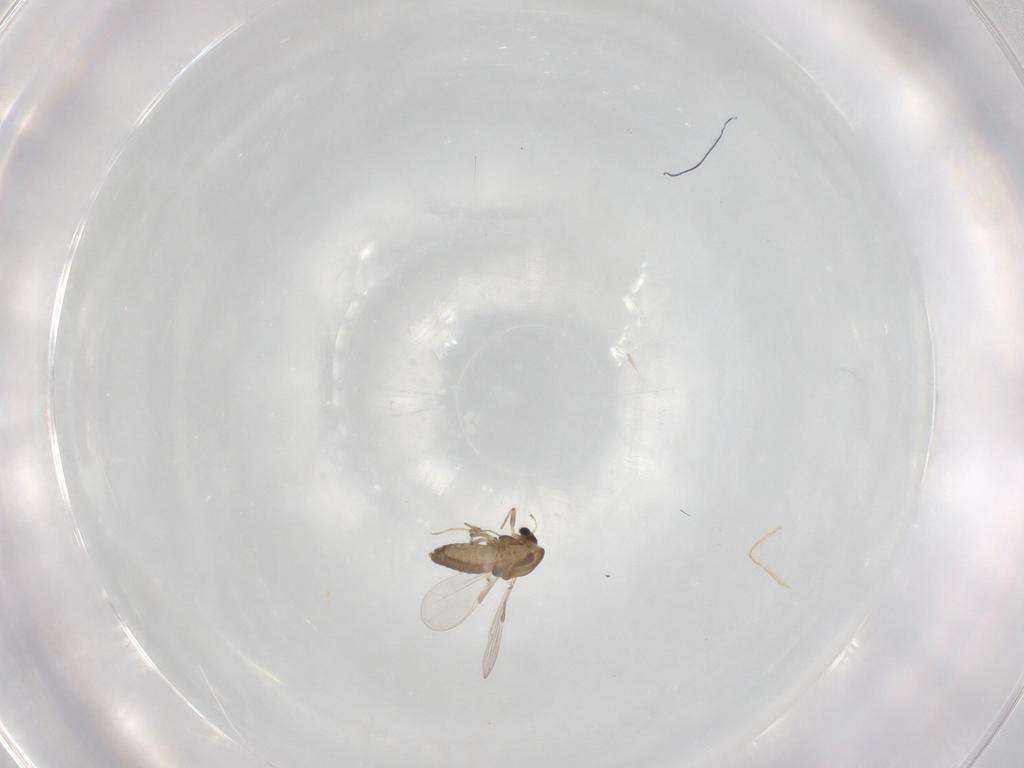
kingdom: Animalia
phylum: Arthropoda
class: Insecta
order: Diptera
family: Chironomidae
